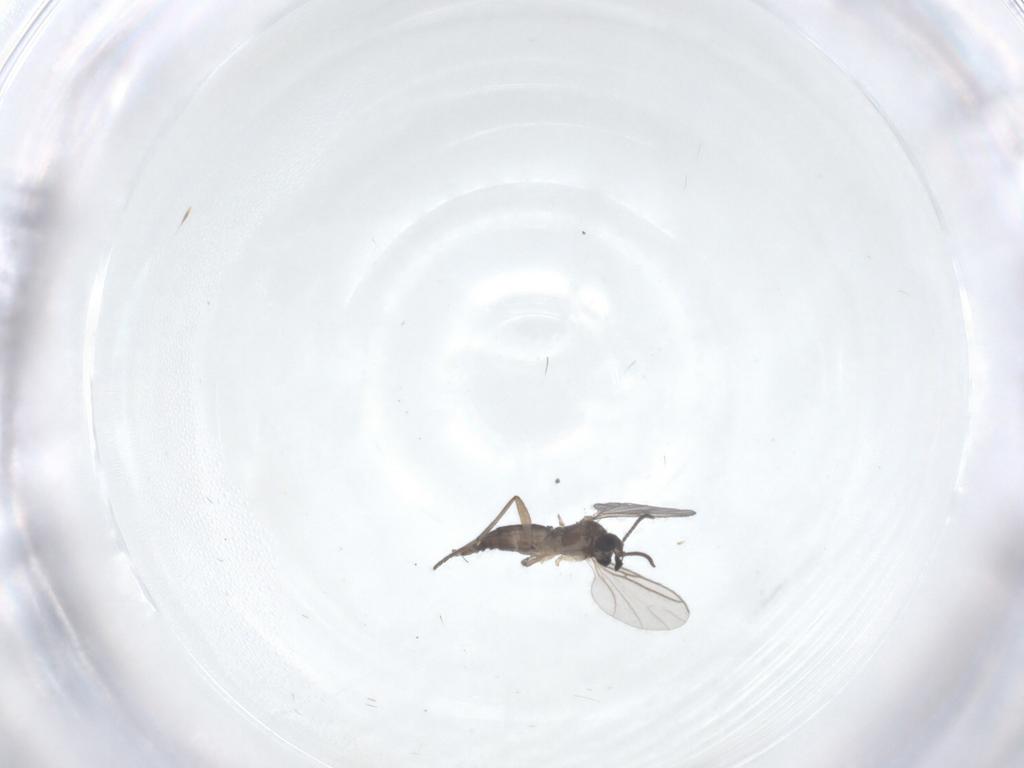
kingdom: Animalia
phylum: Arthropoda
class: Insecta
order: Diptera
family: Sciaridae
